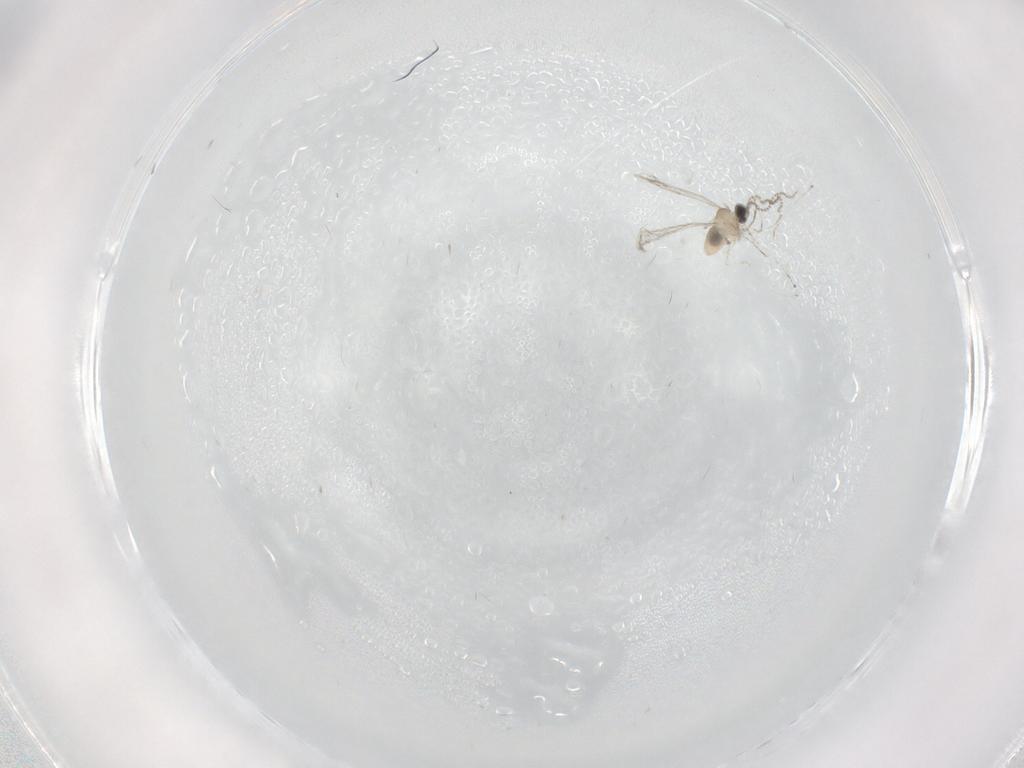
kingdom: Animalia
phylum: Arthropoda
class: Insecta
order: Diptera
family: Cecidomyiidae
